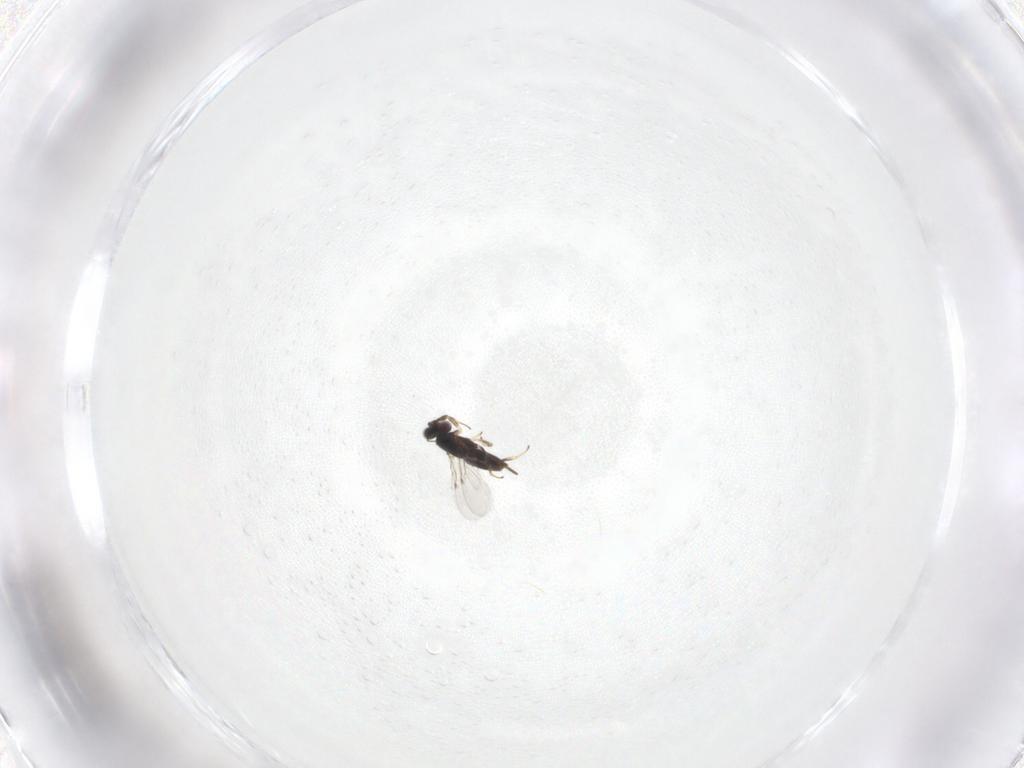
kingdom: Animalia
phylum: Arthropoda
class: Insecta
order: Hymenoptera
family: Encyrtidae
